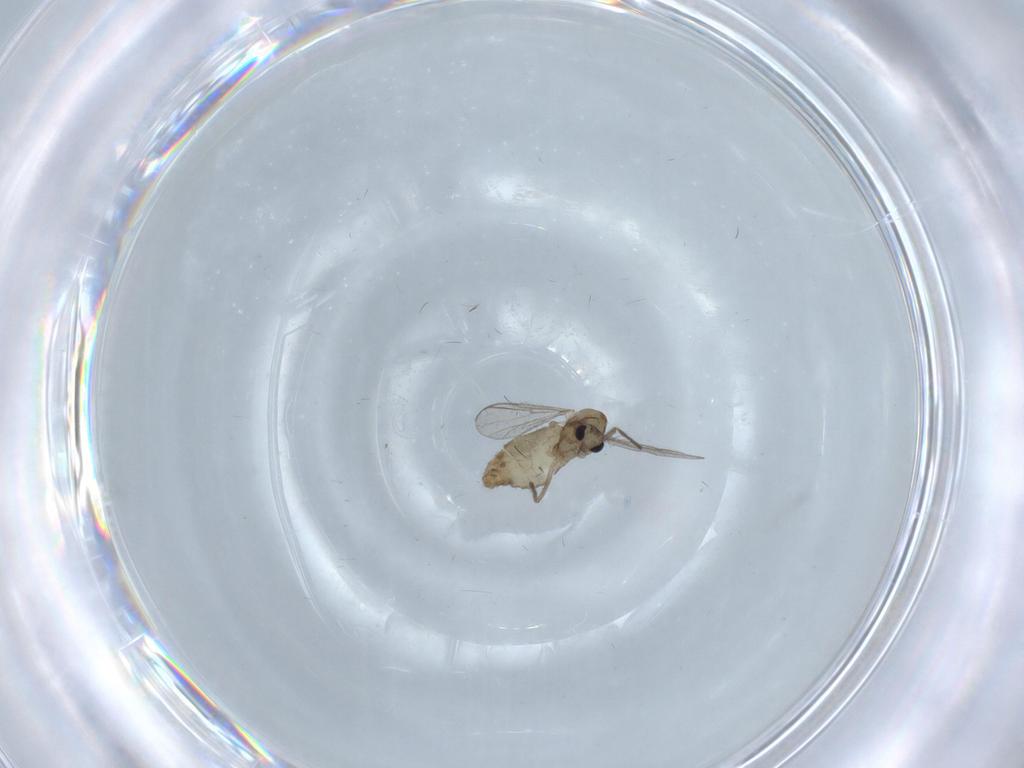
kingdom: Animalia
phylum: Arthropoda
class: Insecta
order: Diptera
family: Chironomidae
